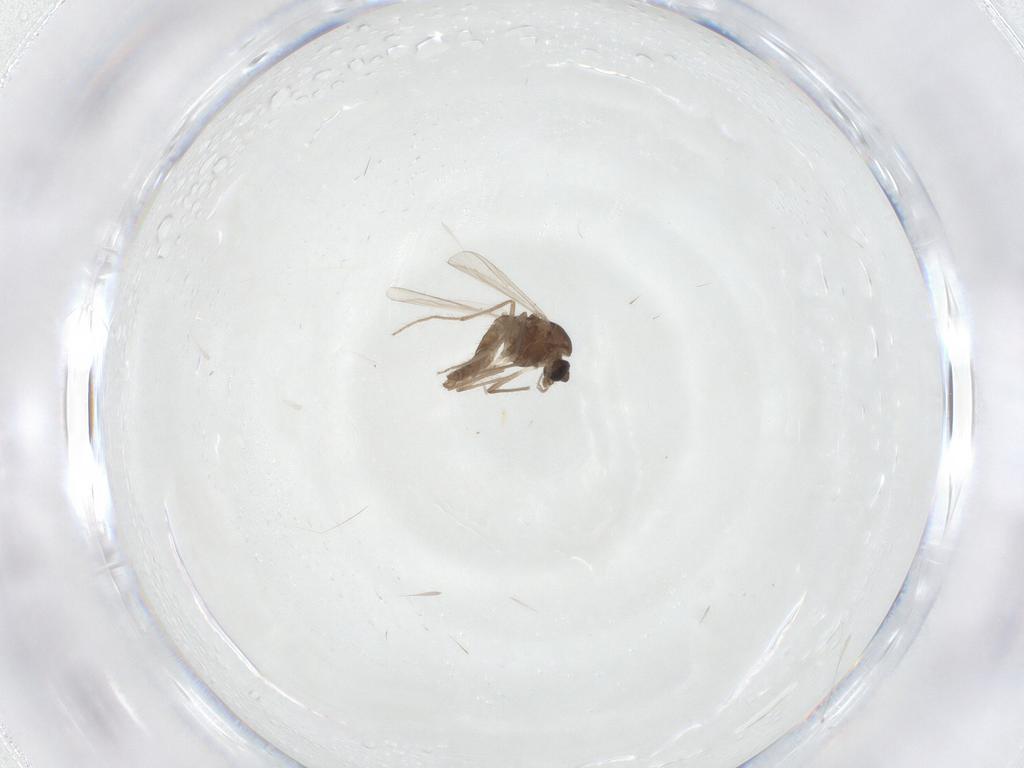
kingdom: Animalia
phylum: Arthropoda
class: Insecta
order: Diptera
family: Chironomidae
